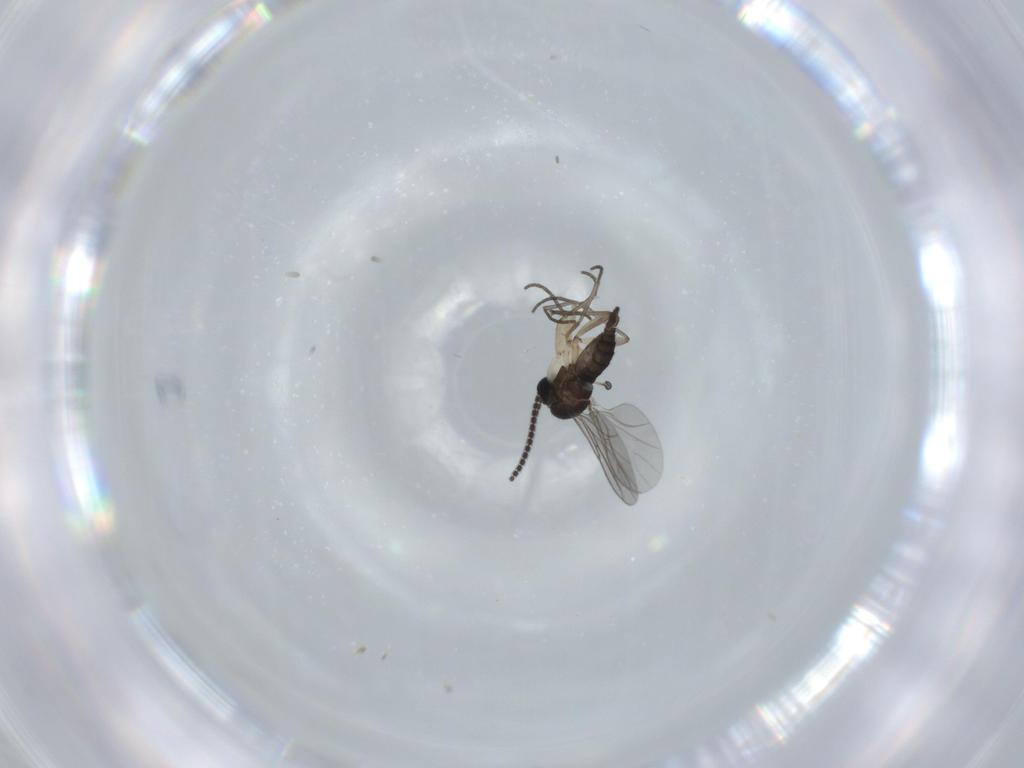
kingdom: Animalia
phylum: Arthropoda
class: Insecta
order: Diptera
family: Sciaridae
